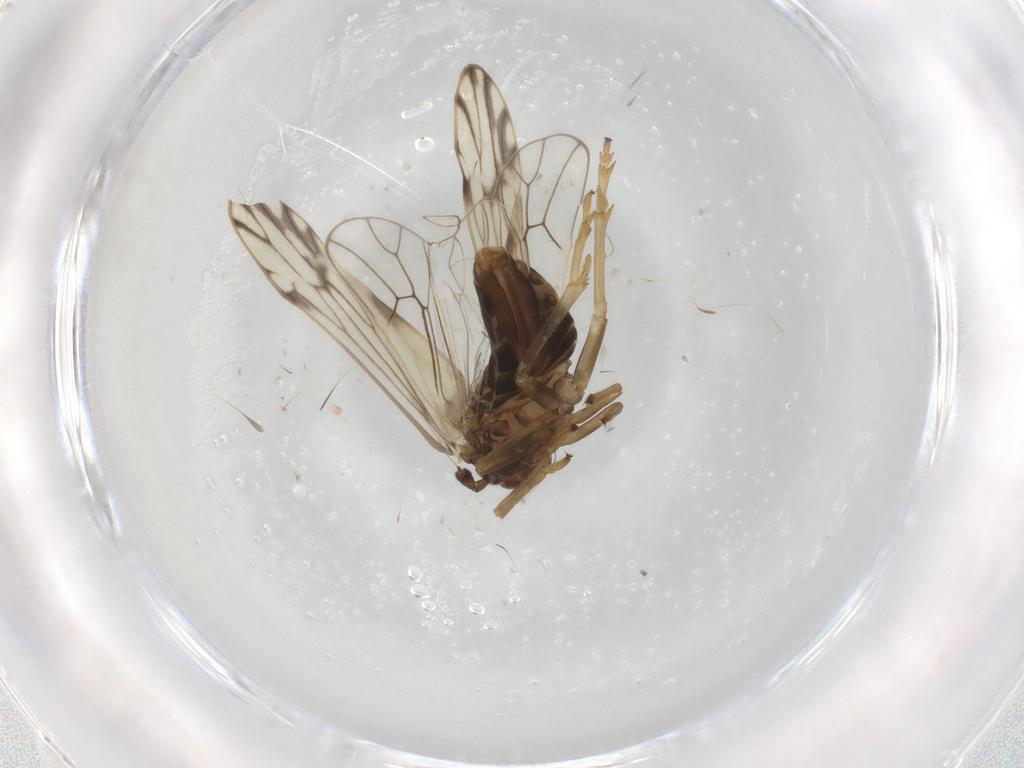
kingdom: Animalia
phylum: Arthropoda
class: Insecta
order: Hemiptera
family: Delphacidae
